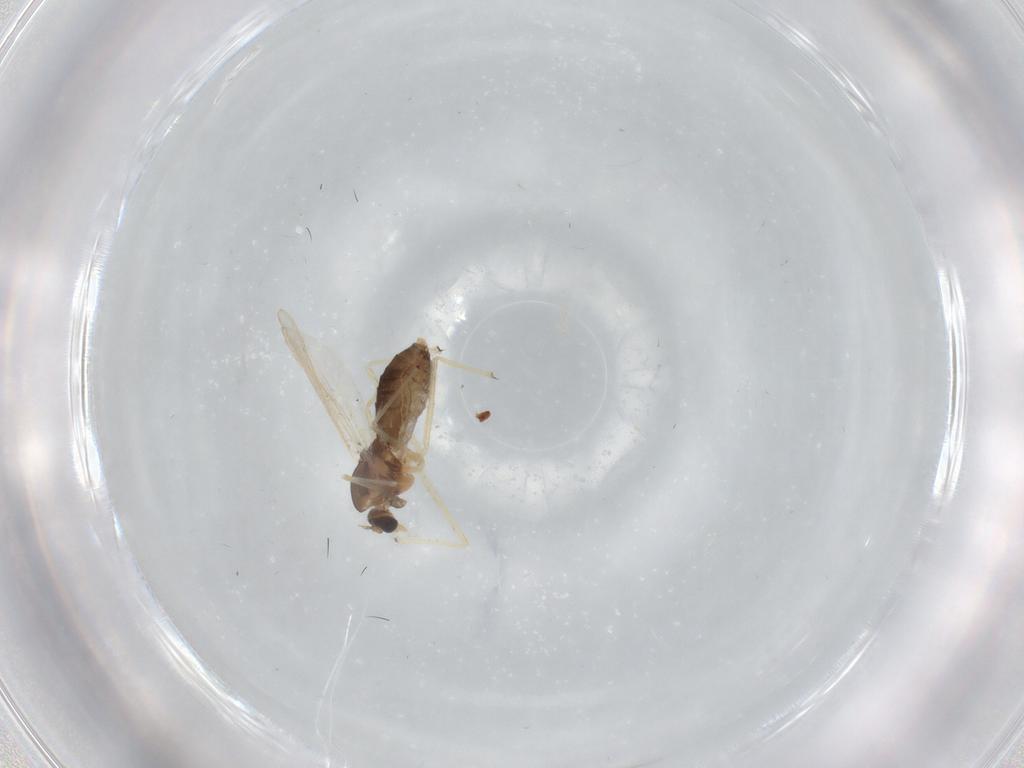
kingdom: Animalia
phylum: Arthropoda
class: Insecta
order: Diptera
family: Chironomidae
